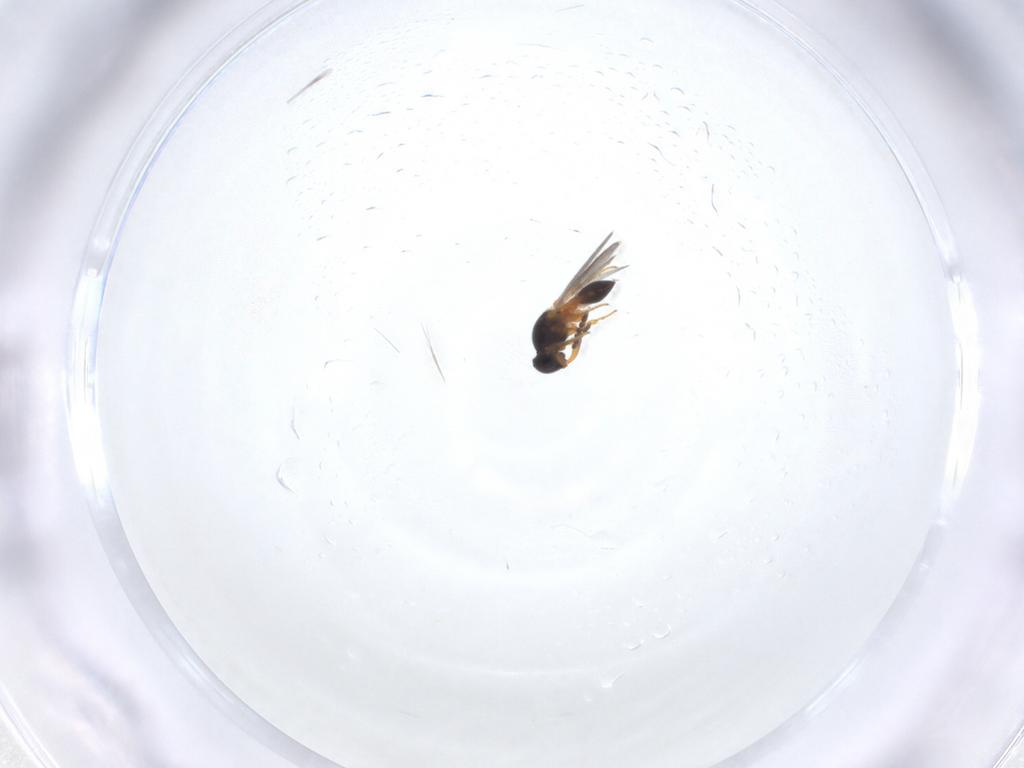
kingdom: Animalia
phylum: Arthropoda
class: Insecta
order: Hymenoptera
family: Platygastridae
